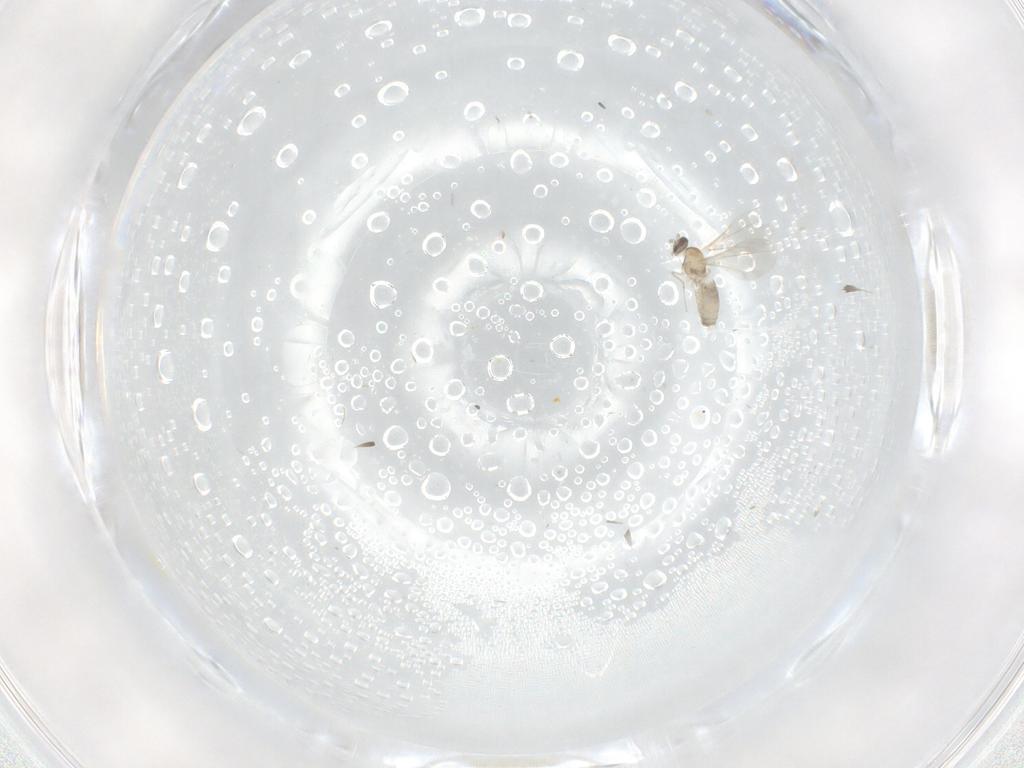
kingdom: Animalia
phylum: Arthropoda
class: Insecta
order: Diptera
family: Cecidomyiidae
